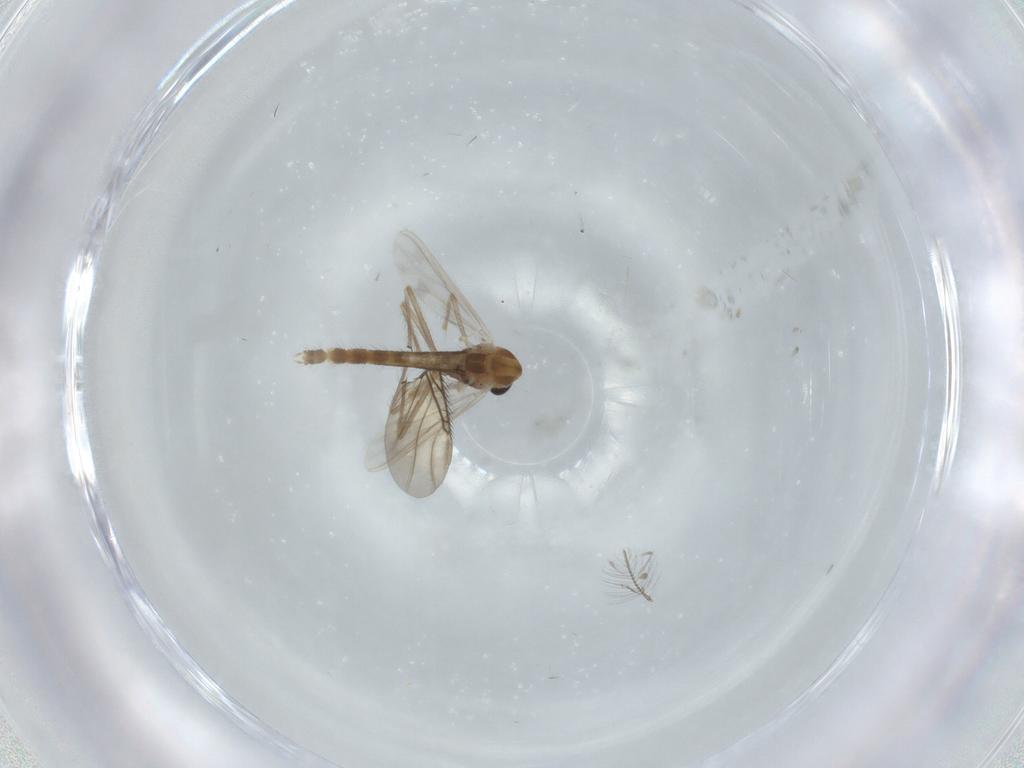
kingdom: Animalia
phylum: Arthropoda
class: Insecta
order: Diptera
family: Chironomidae
